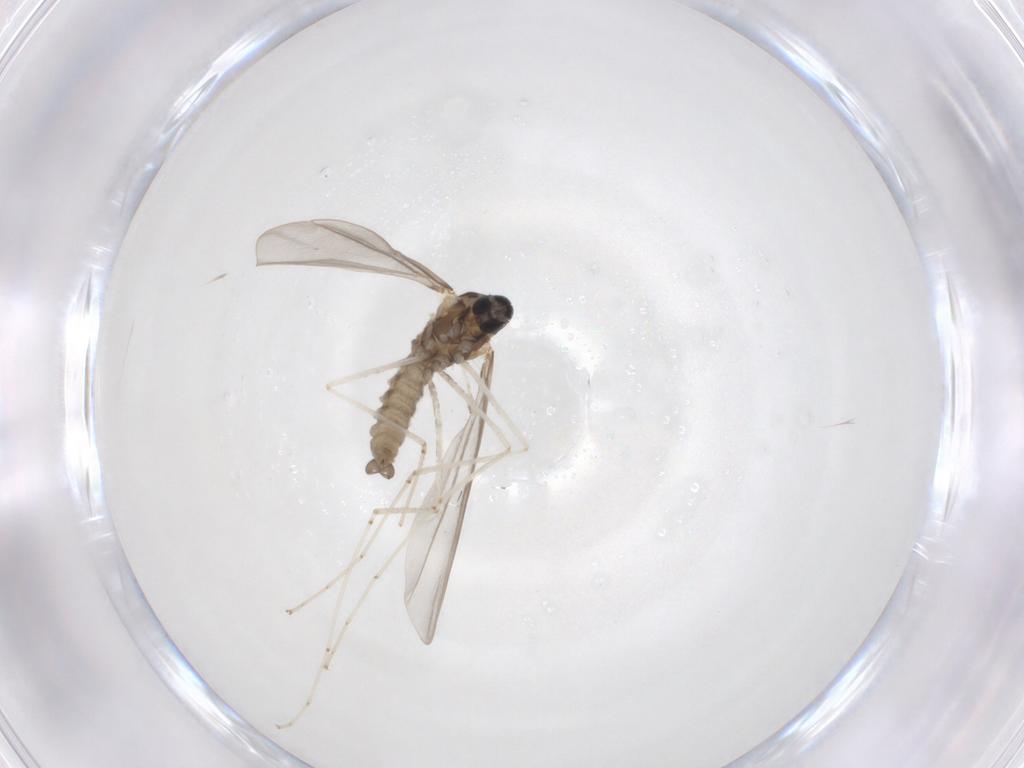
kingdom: Animalia
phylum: Arthropoda
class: Insecta
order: Diptera
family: Cecidomyiidae
